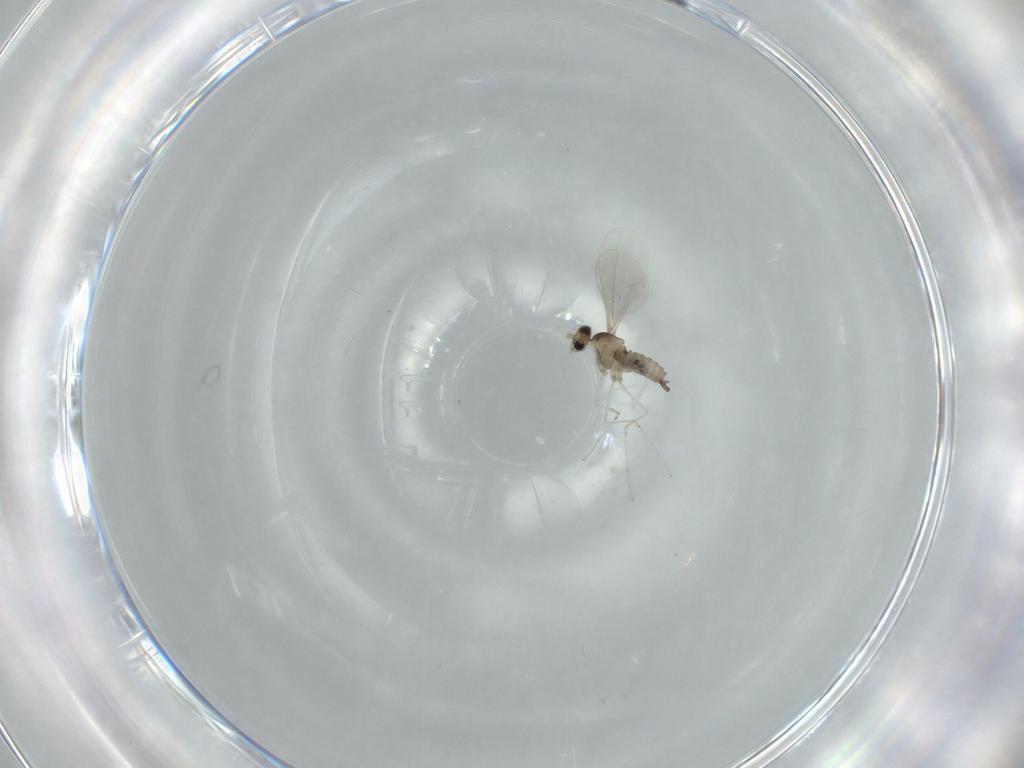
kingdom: Animalia
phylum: Arthropoda
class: Insecta
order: Diptera
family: Cecidomyiidae
